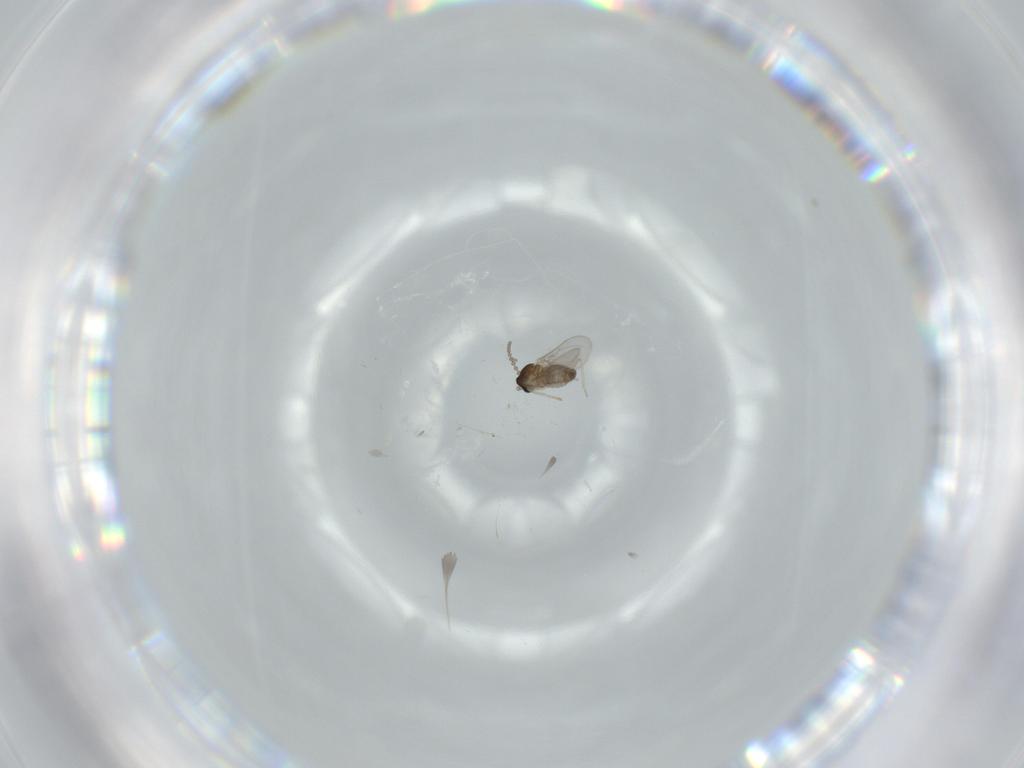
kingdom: Animalia
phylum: Arthropoda
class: Insecta
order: Diptera
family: Cecidomyiidae
